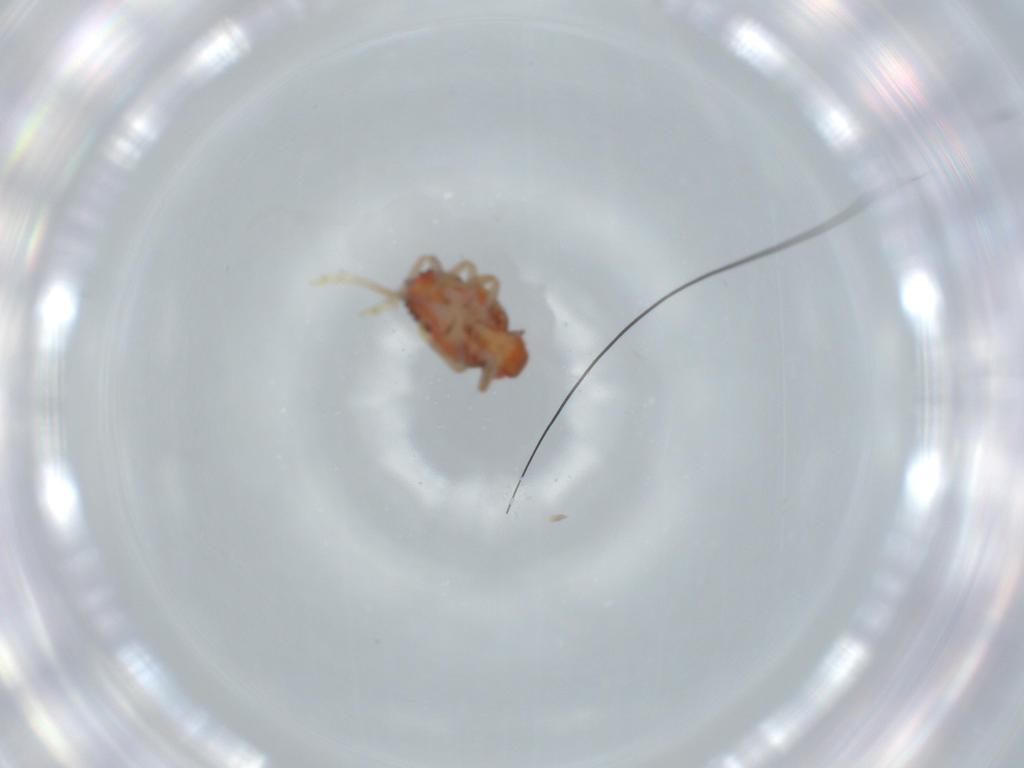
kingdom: Animalia
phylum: Arthropoda
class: Insecta
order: Hemiptera
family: Issidae
